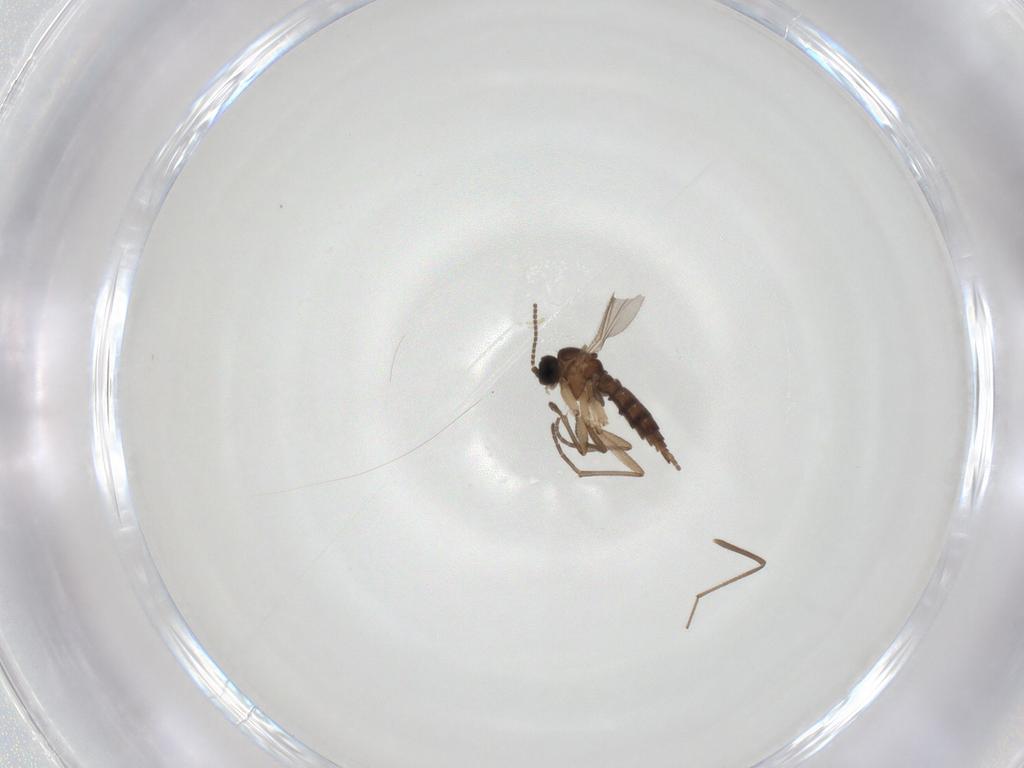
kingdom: Animalia
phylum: Arthropoda
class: Insecta
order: Diptera
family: Sciaridae
